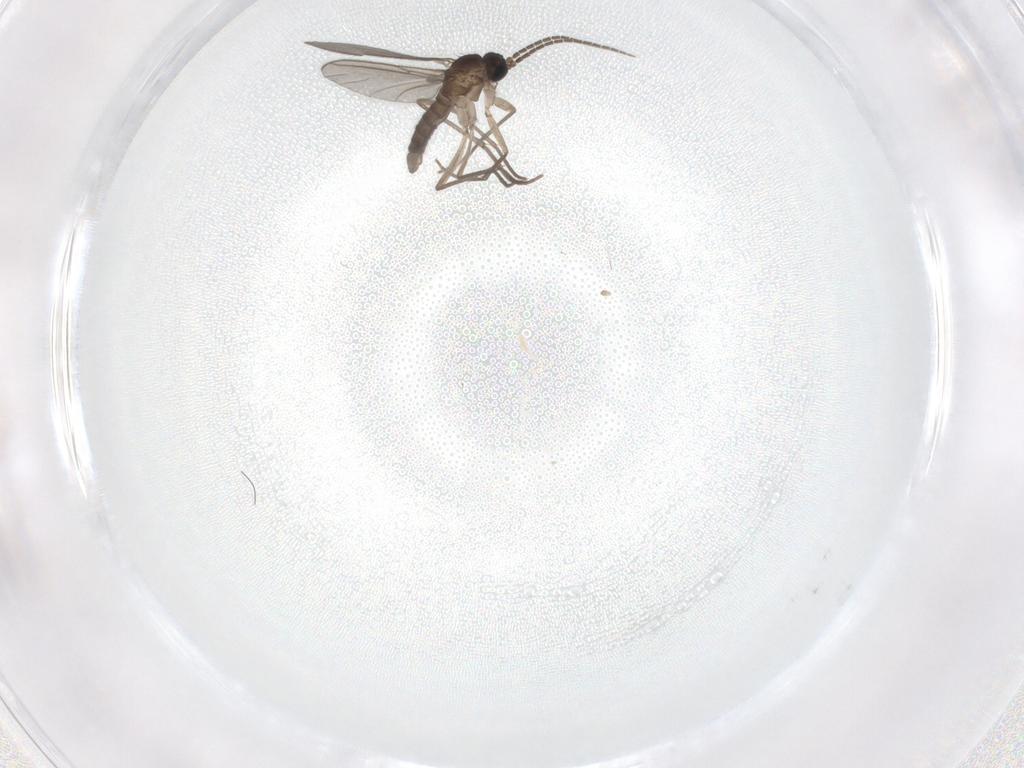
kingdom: Animalia
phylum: Arthropoda
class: Insecta
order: Diptera
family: Sciaridae
